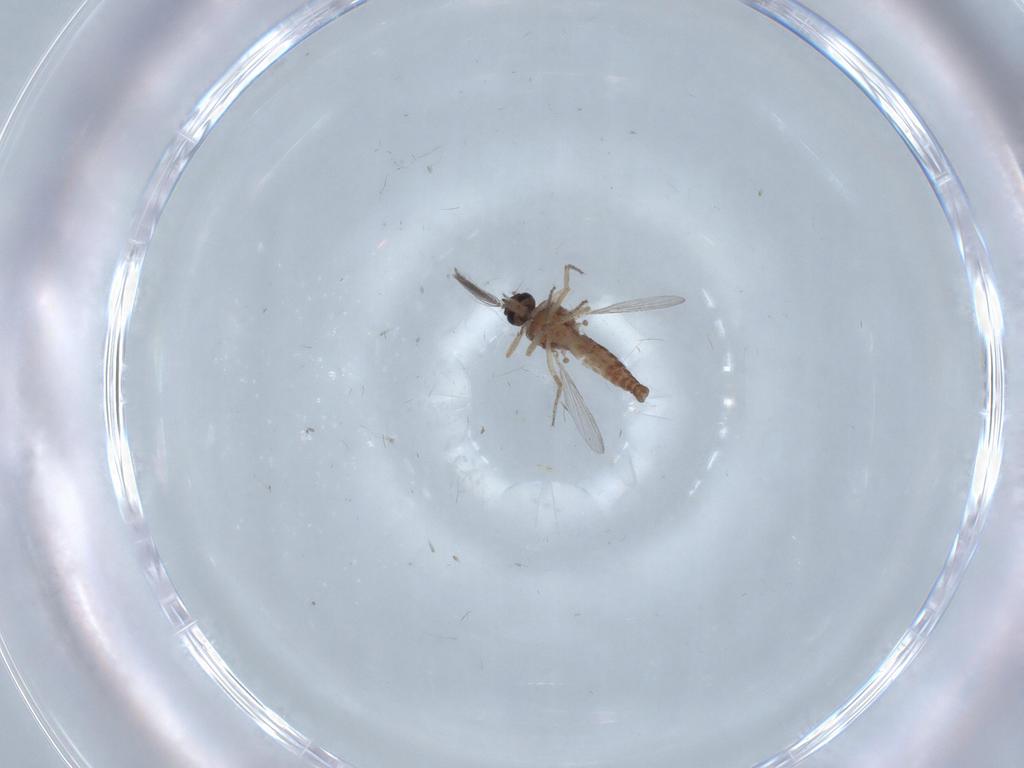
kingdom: Animalia
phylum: Arthropoda
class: Insecta
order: Diptera
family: Ceratopogonidae
